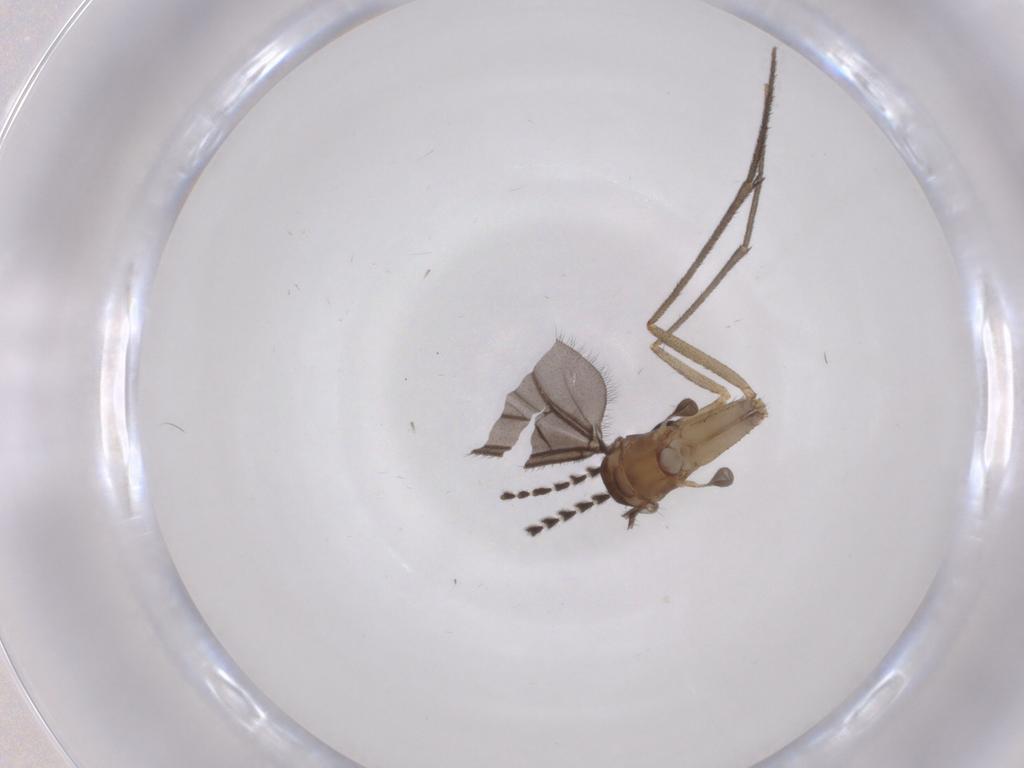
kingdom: Animalia
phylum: Arthropoda
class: Insecta
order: Diptera
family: Ditomyiidae
